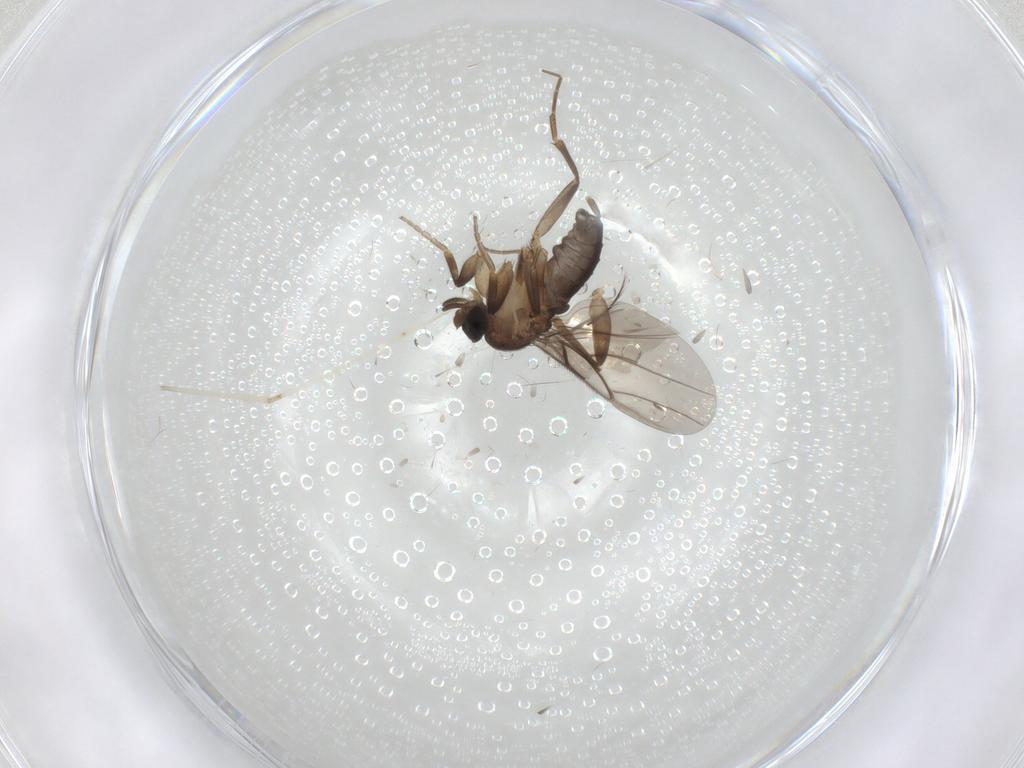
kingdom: Animalia
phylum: Arthropoda
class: Insecta
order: Diptera
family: Phoridae
